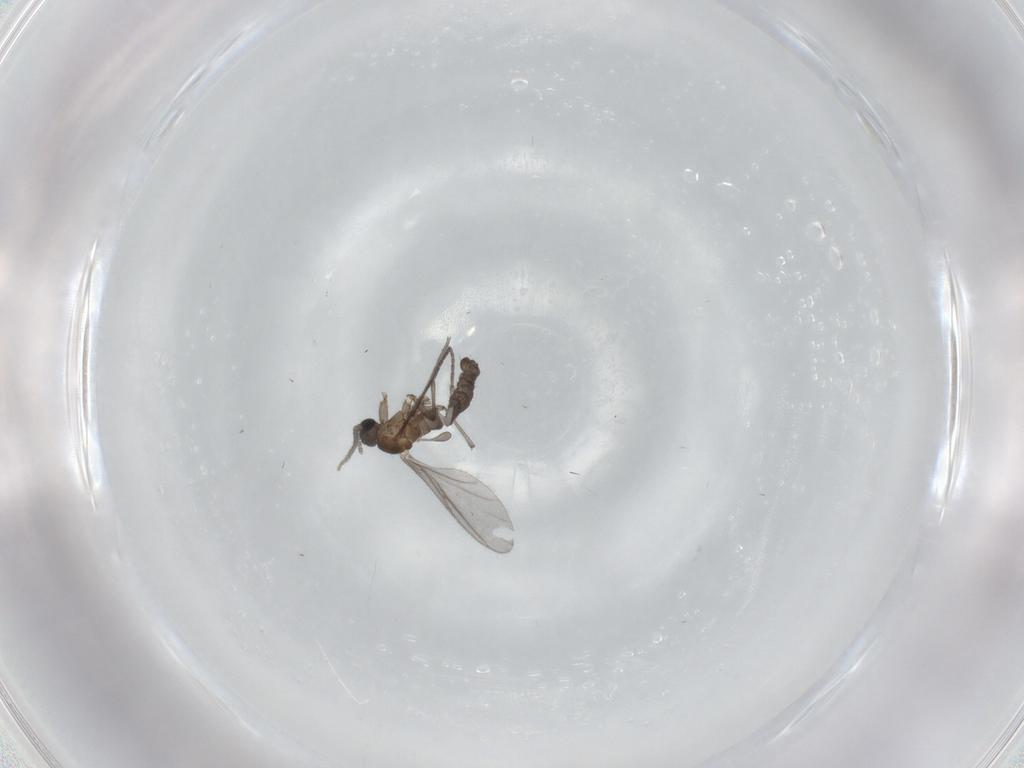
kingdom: Animalia
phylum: Arthropoda
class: Insecta
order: Diptera
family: Sciaridae
